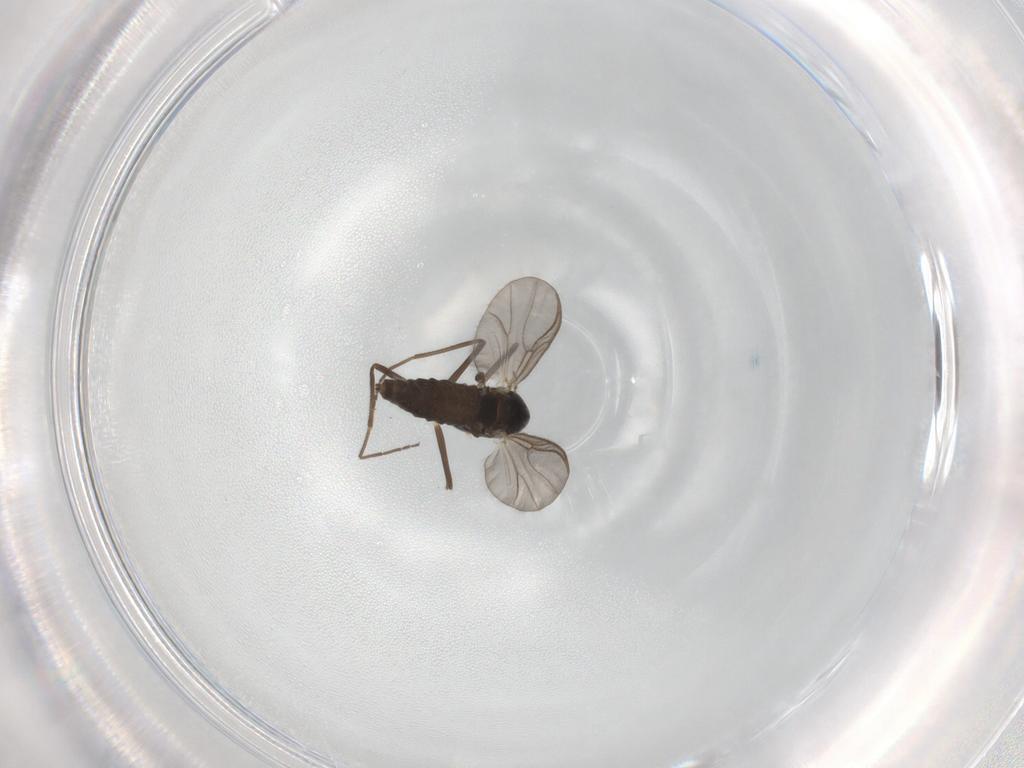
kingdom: Animalia
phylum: Arthropoda
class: Insecta
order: Diptera
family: Chironomidae
